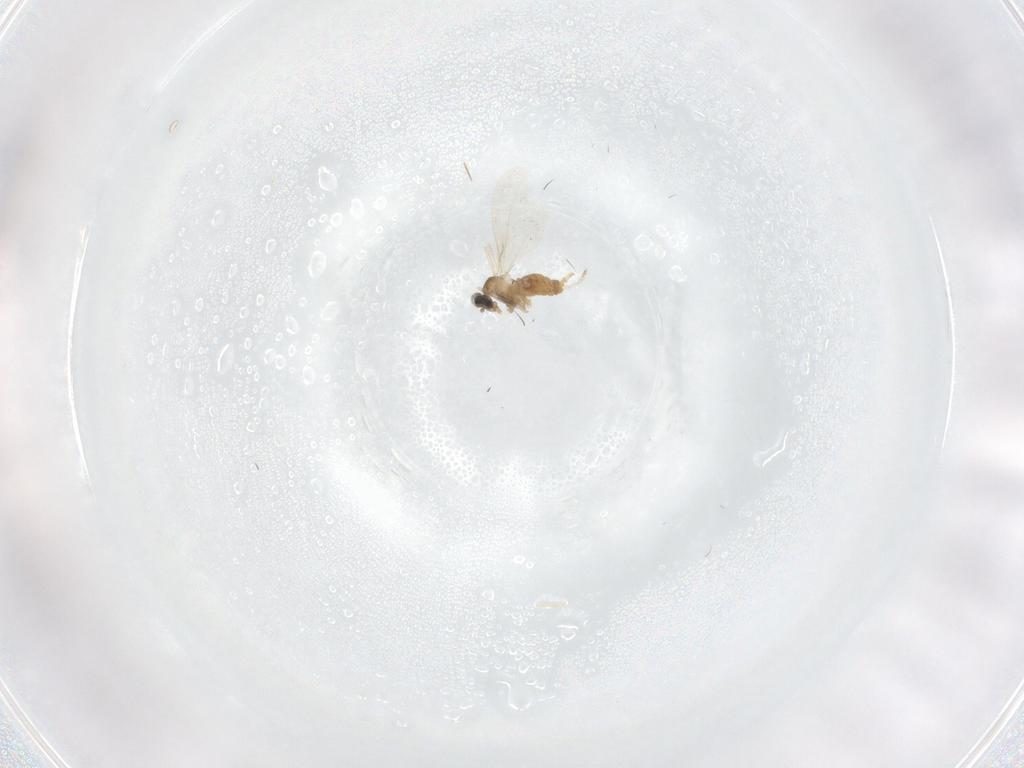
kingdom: Animalia
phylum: Arthropoda
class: Insecta
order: Diptera
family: Cecidomyiidae
